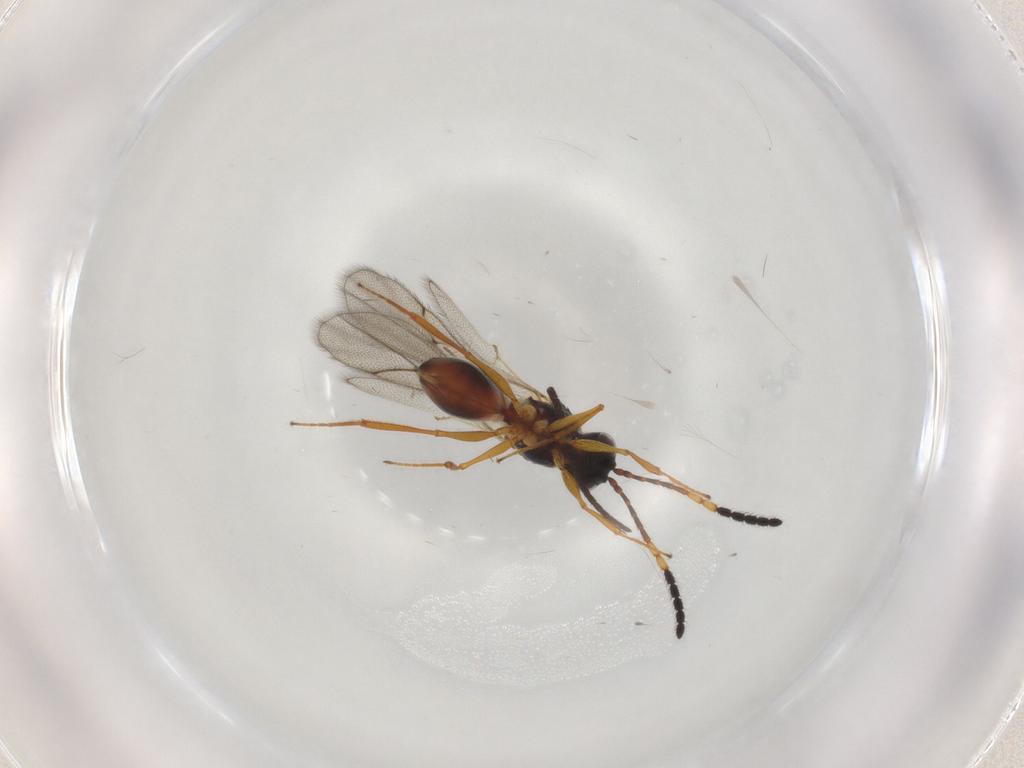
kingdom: Animalia
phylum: Arthropoda
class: Insecta
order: Hymenoptera
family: Figitidae
